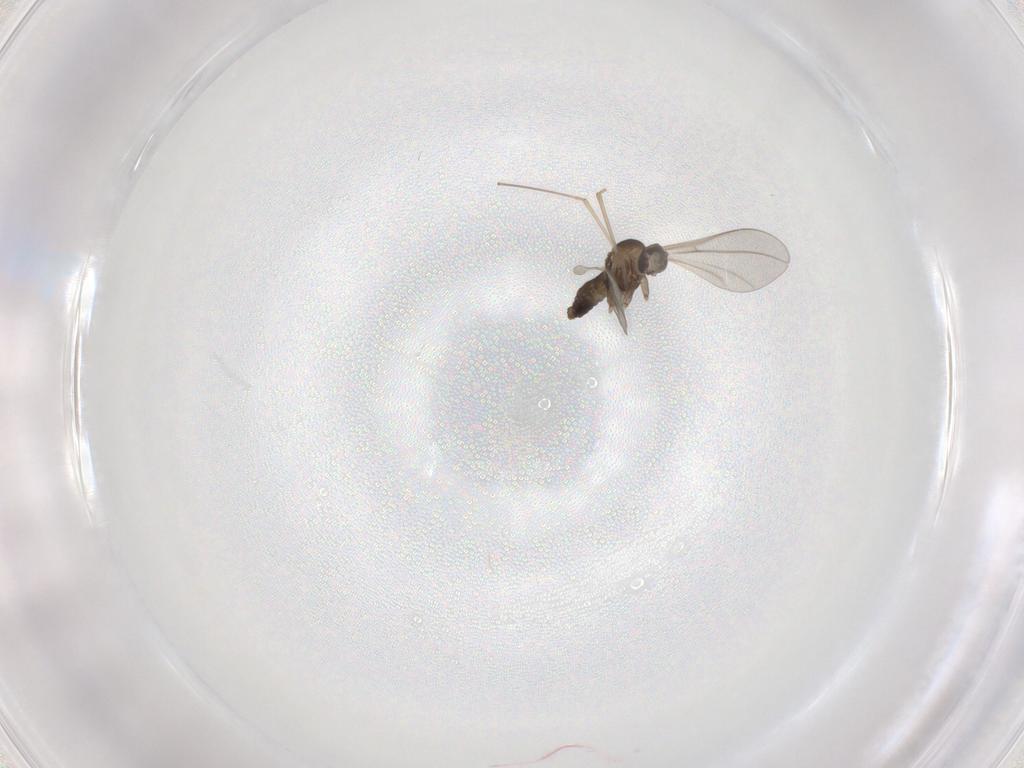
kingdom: Animalia
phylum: Arthropoda
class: Insecta
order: Diptera
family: Cecidomyiidae
